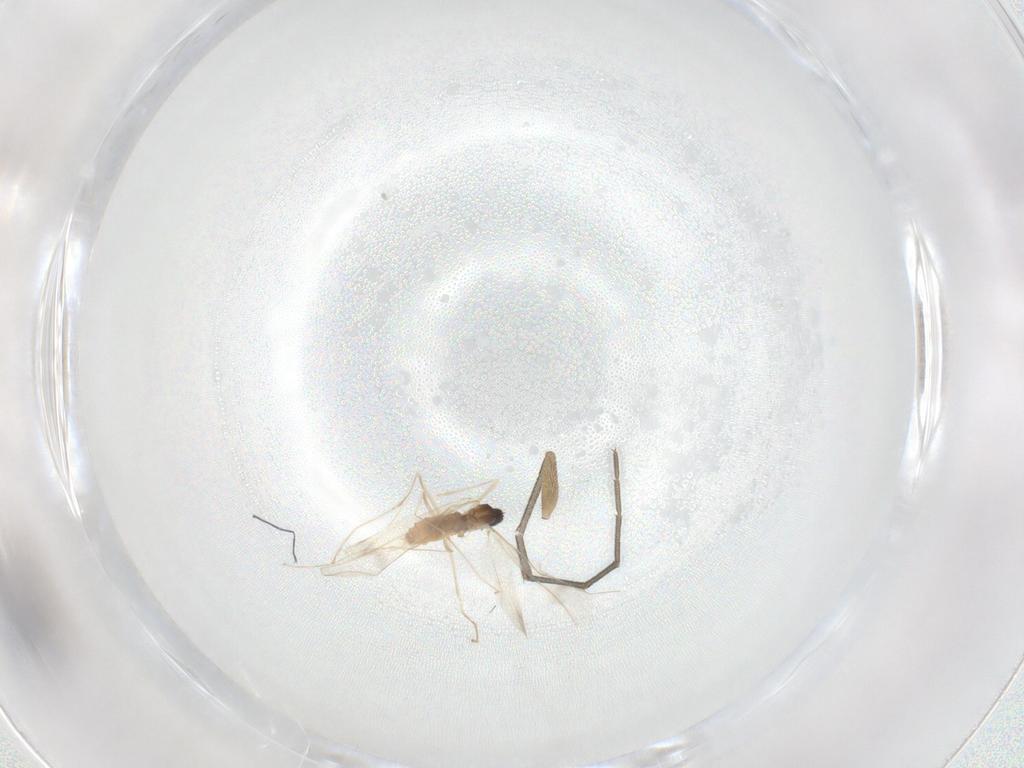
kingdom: Animalia
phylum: Arthropoda
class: Insecta
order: Diptera
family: Cecidomyiidae
